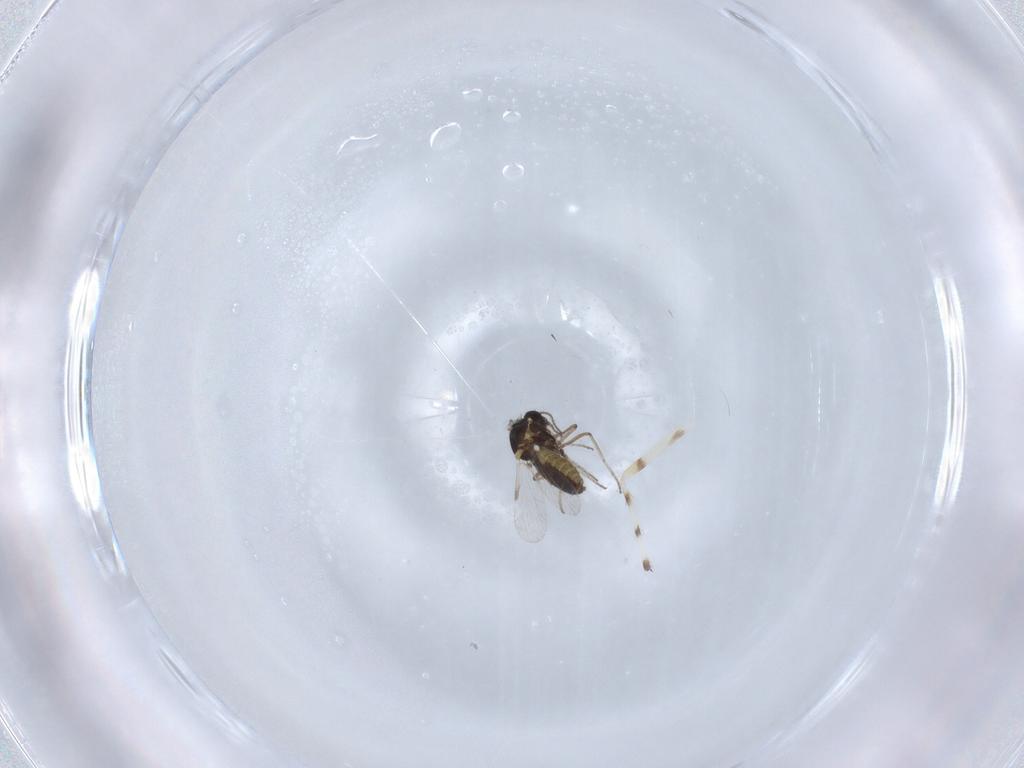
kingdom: Animalia
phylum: Arthropoda
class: Insecta
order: Diptera
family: Ceratopogonidae
